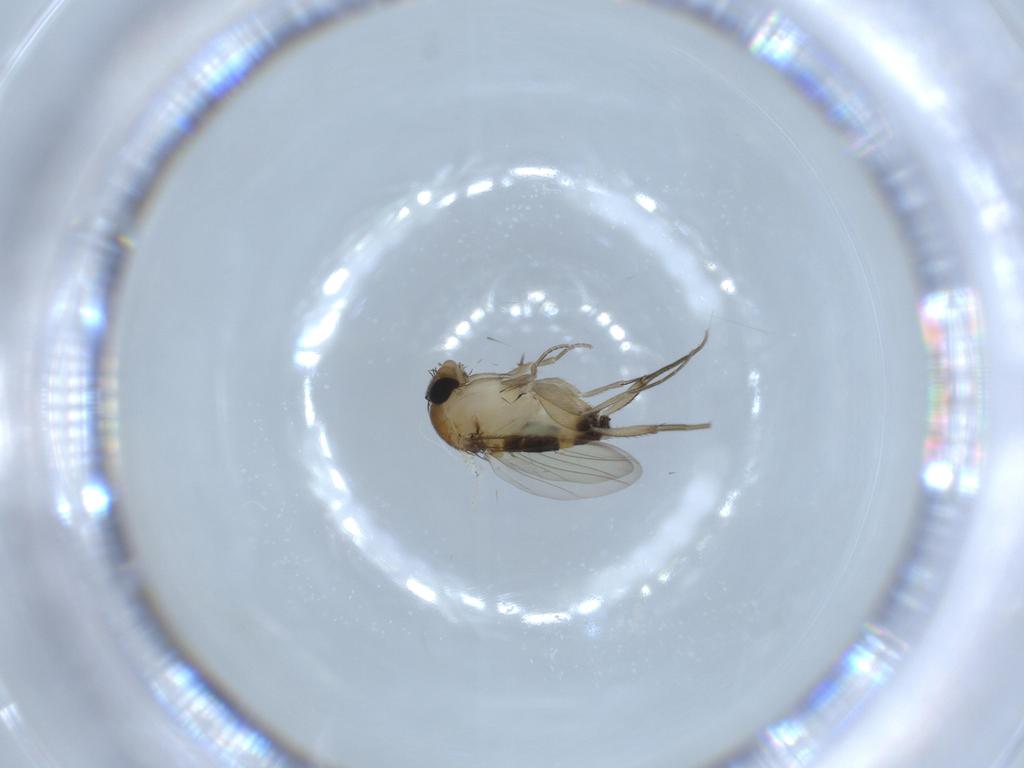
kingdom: Animalia
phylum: Arthropoda
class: Insecta
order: Diptera
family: Phoridae
